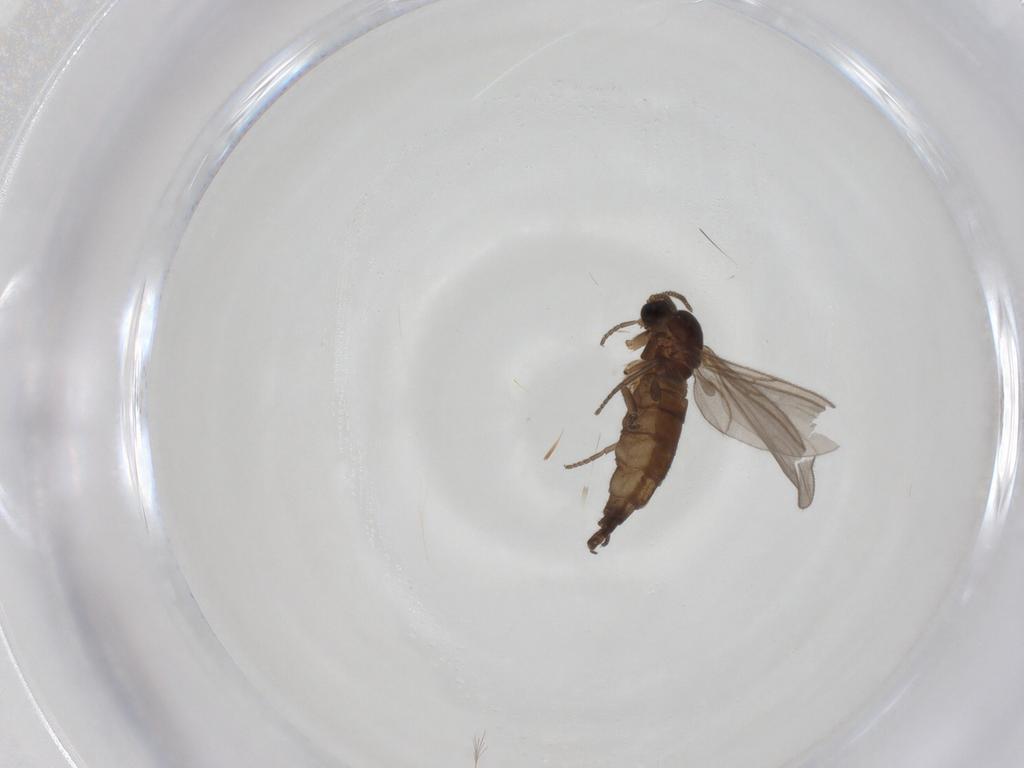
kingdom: Animalia
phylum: Arthropoda
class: Insecta
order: Diptera
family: Sciaridae
